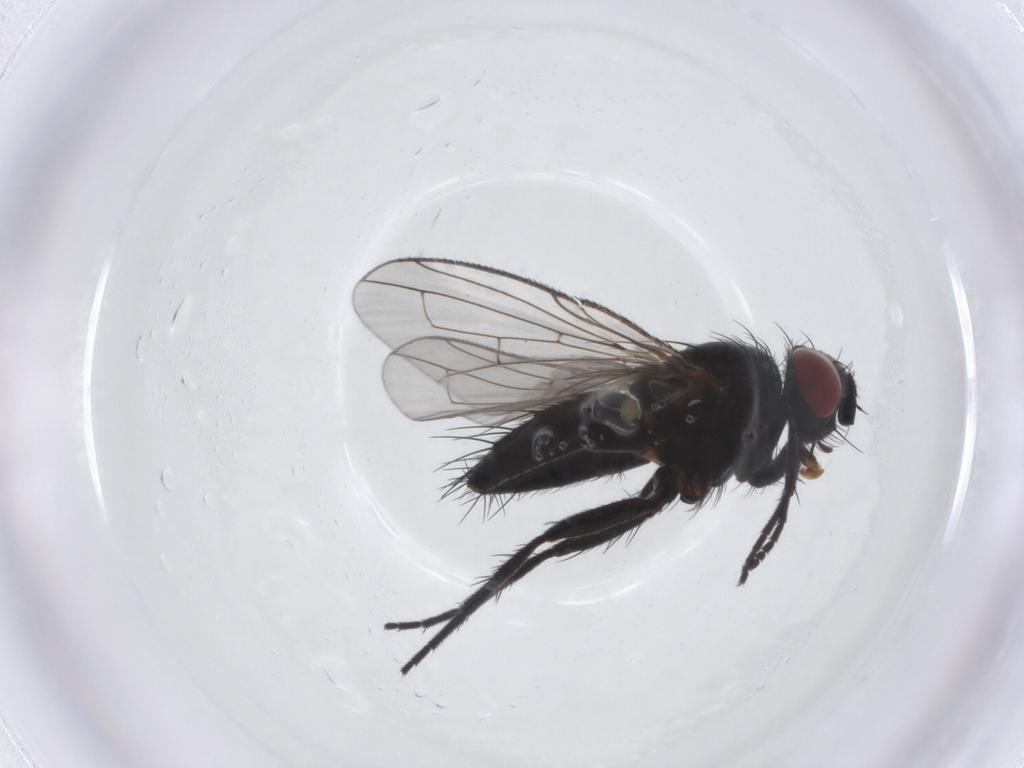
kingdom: Animalia
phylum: Arthropoda
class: Insecta
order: Diptera
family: Tachinidae
